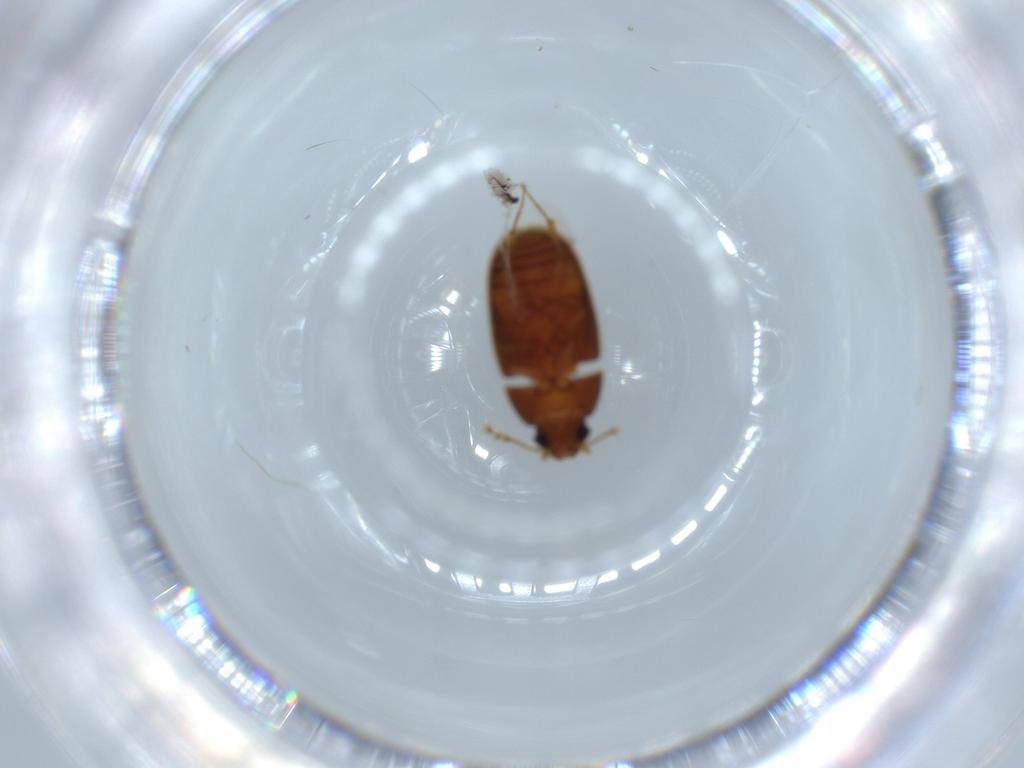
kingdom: Animalia
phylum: Arthropoda
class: Insecta
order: Coleoptera
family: Mycetophagidae
